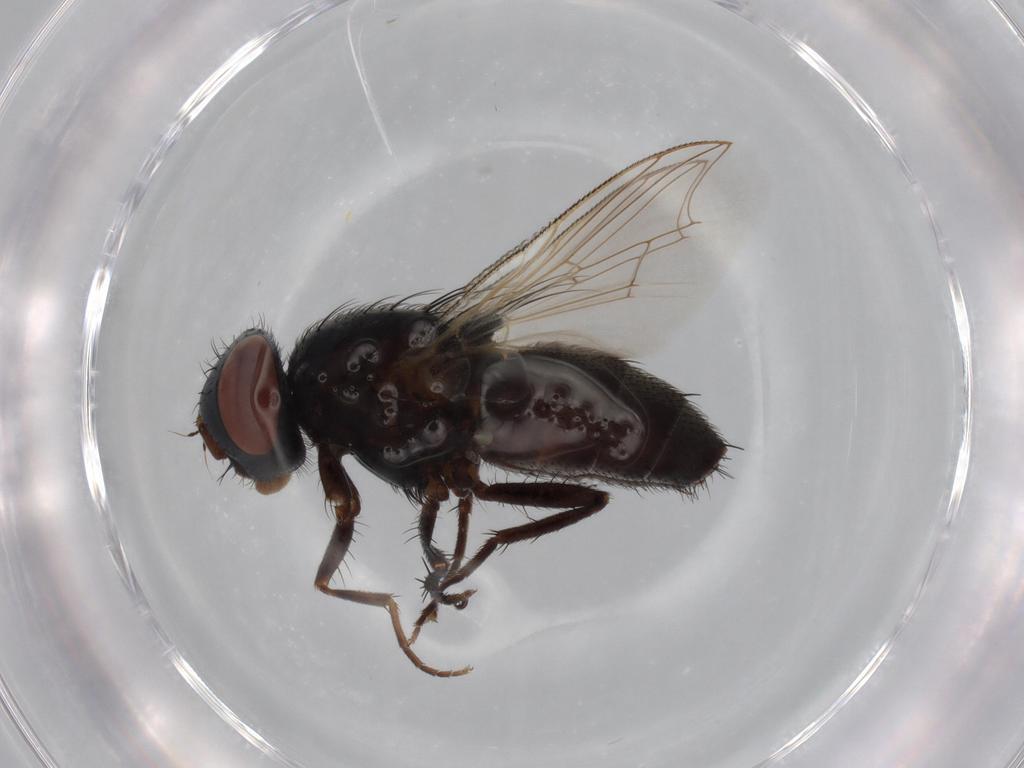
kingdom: Animalia
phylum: Arthropoda
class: Insecta
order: Diptera
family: Sarcophagidae
